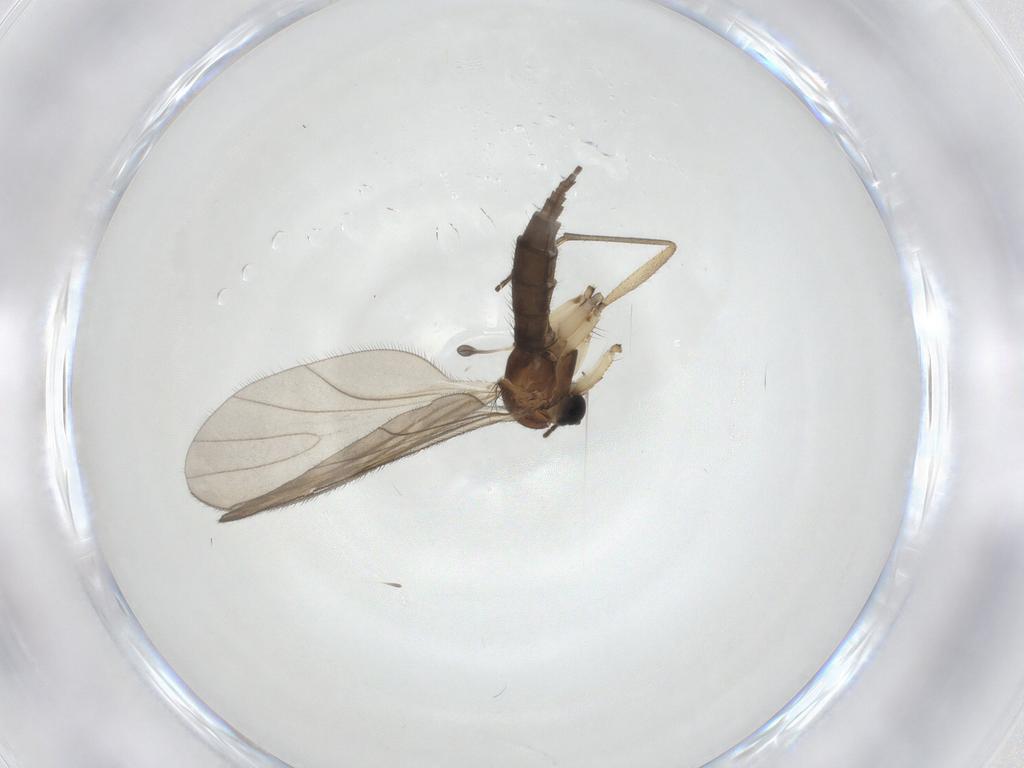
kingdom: Animalia
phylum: Arthropoda
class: Insecta
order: Diptera
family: Sciaridae
